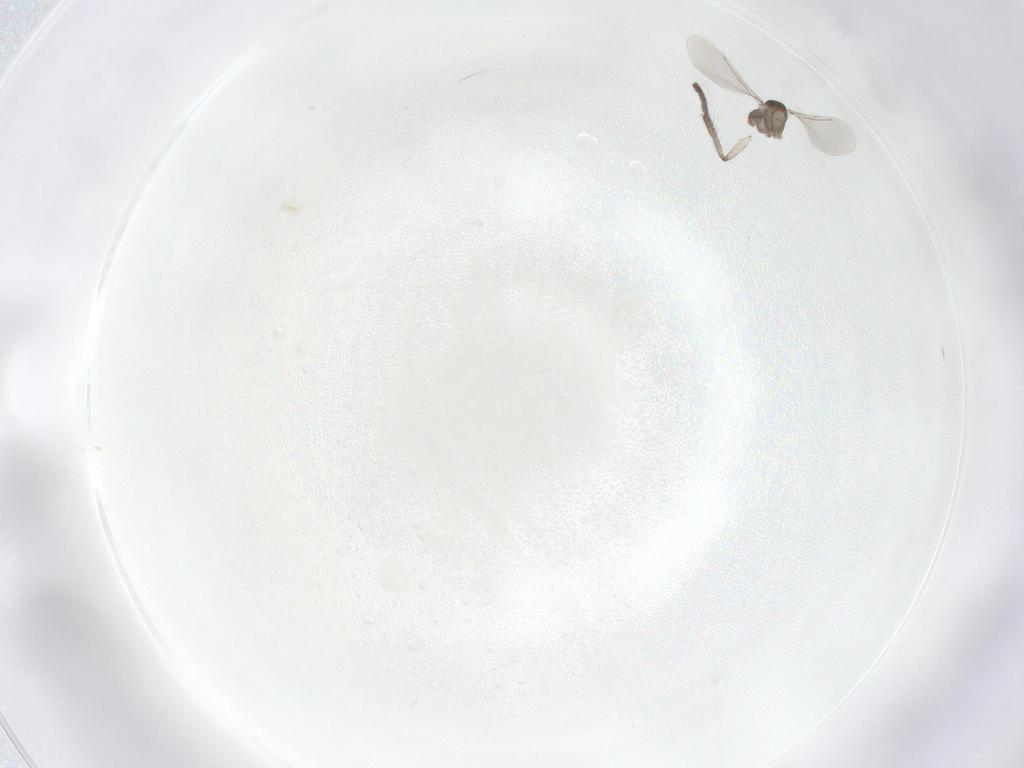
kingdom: Animalia
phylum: Arthropoda
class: Insecta
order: Diptera
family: Cecidomyiidae
